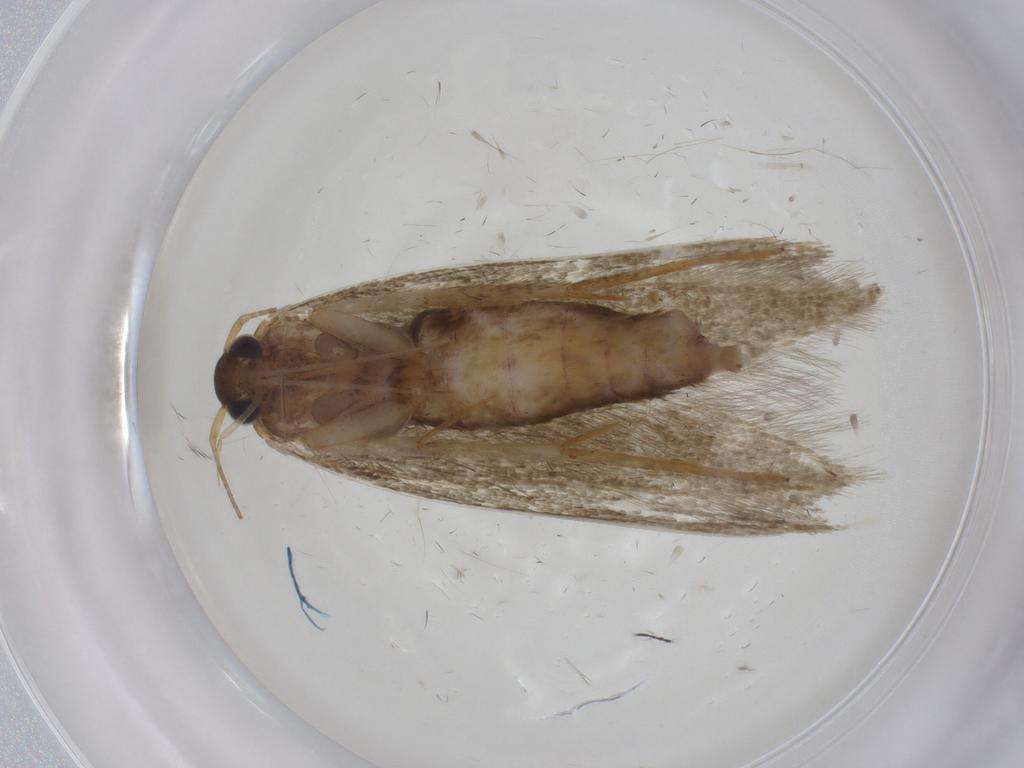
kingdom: Animalia
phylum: Arthropoda
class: Insecta
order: Lepidoptera
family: Blastobasidae
